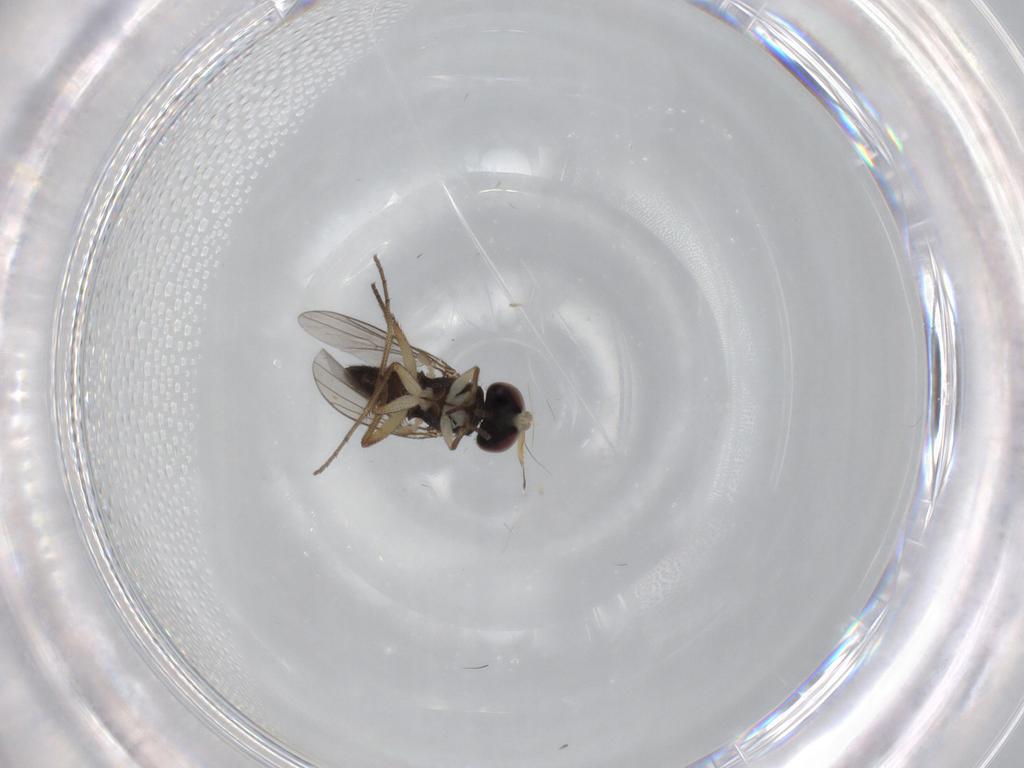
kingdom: Animalia
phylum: Arthropoda
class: Insecta
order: Diptera
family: Dolichopodidae
